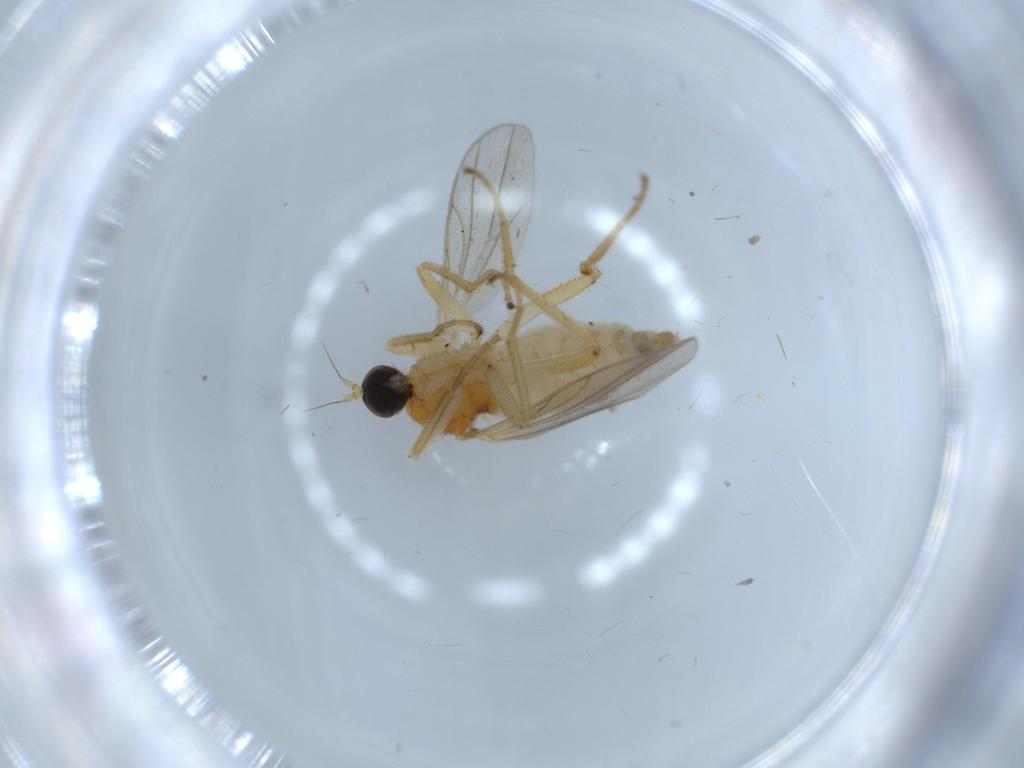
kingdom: Animalia
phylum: Arthropoda
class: Insecta
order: Diptera
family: Hybotidae
